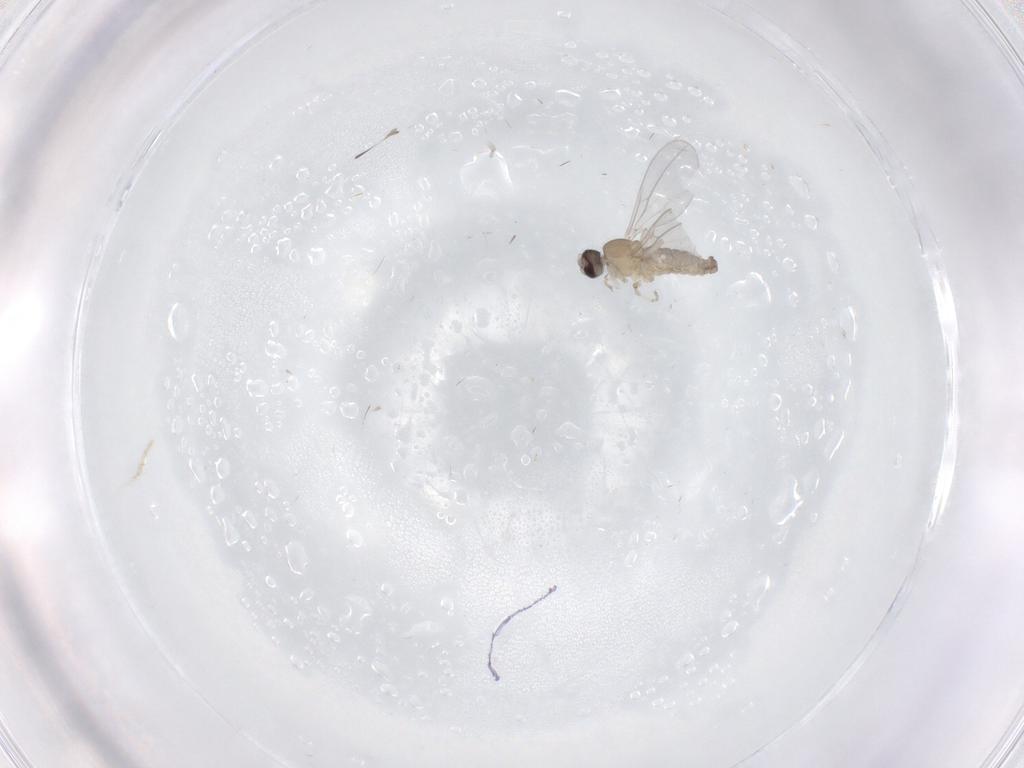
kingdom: Animalia
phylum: Arthropoda
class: Insecta
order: Diptera
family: Cecidomyiidae
